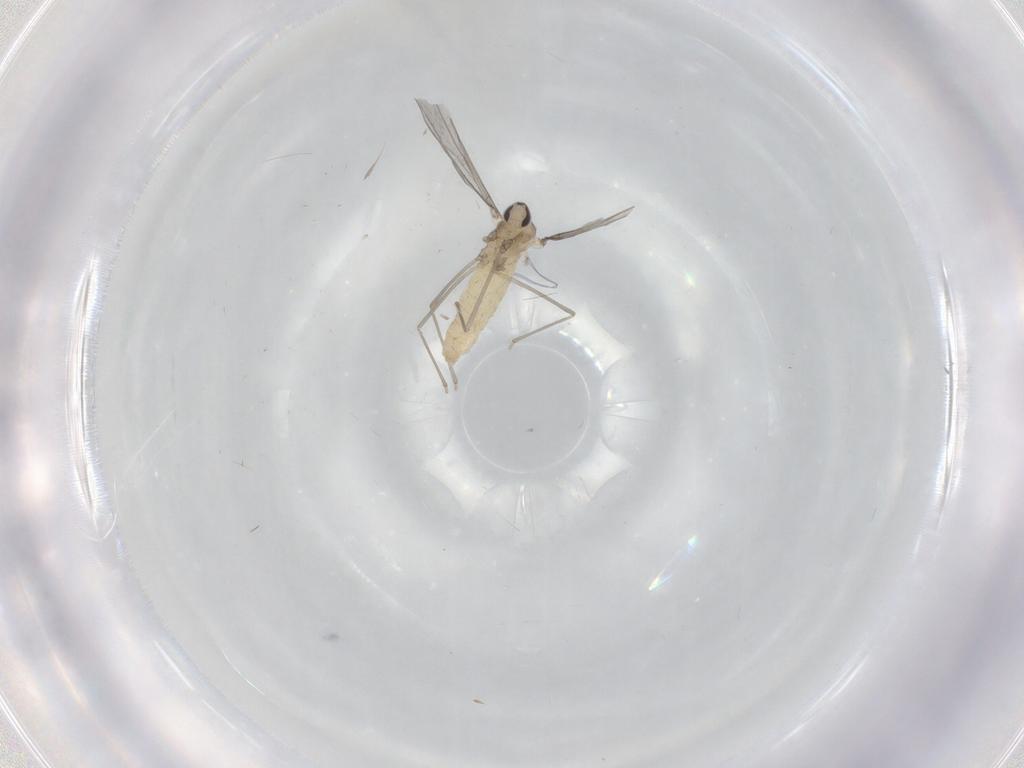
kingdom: Animalia
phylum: Arthropoda
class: Insecta
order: Diptera
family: Cecidomyiidae
